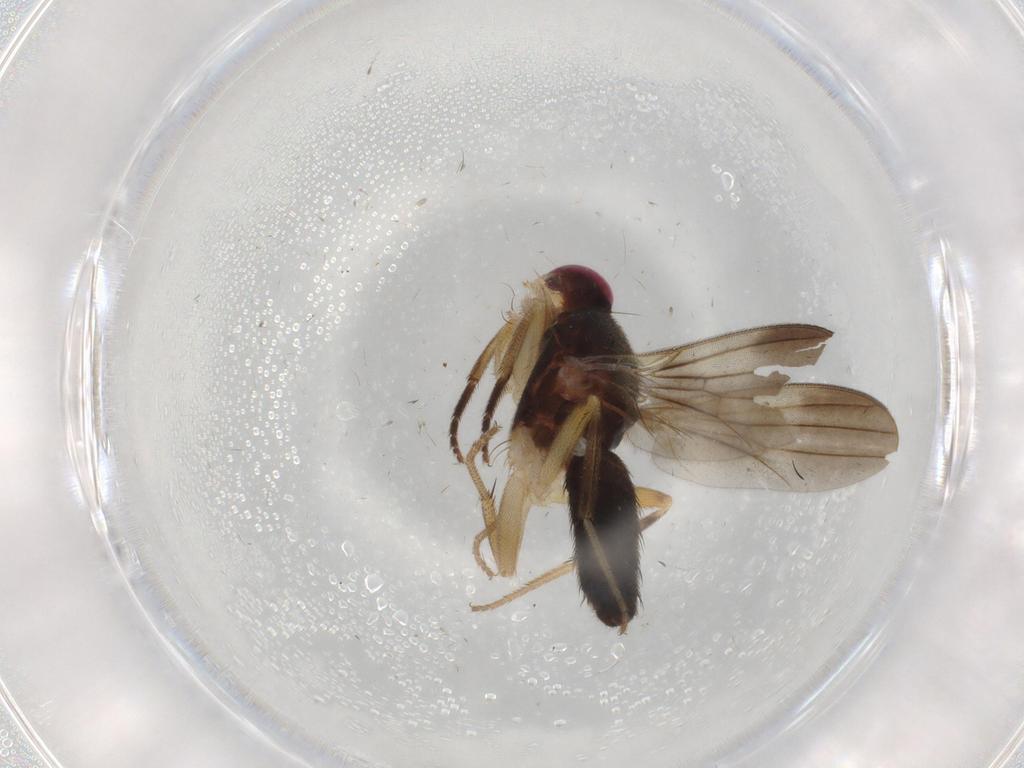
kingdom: Animalia
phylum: Arthropoda
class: Insecta
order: Diptera
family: Clusiidae
